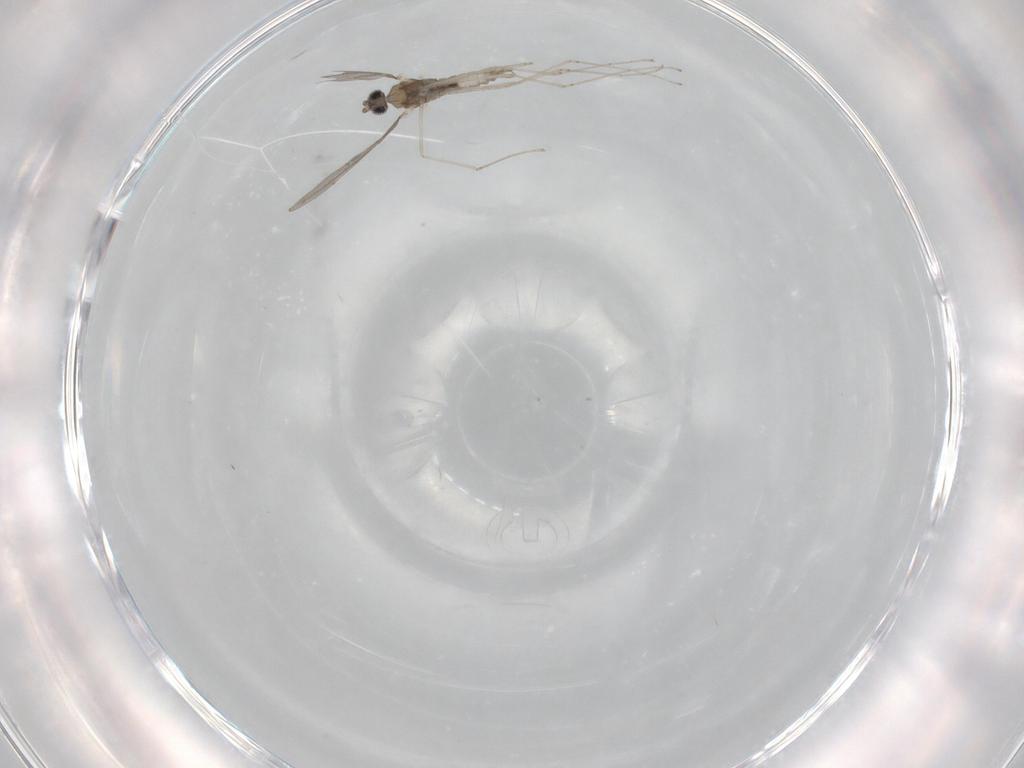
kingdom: Animalia
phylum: Arthropoda
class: Insecta
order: Diptera
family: Cecidomyiidae
